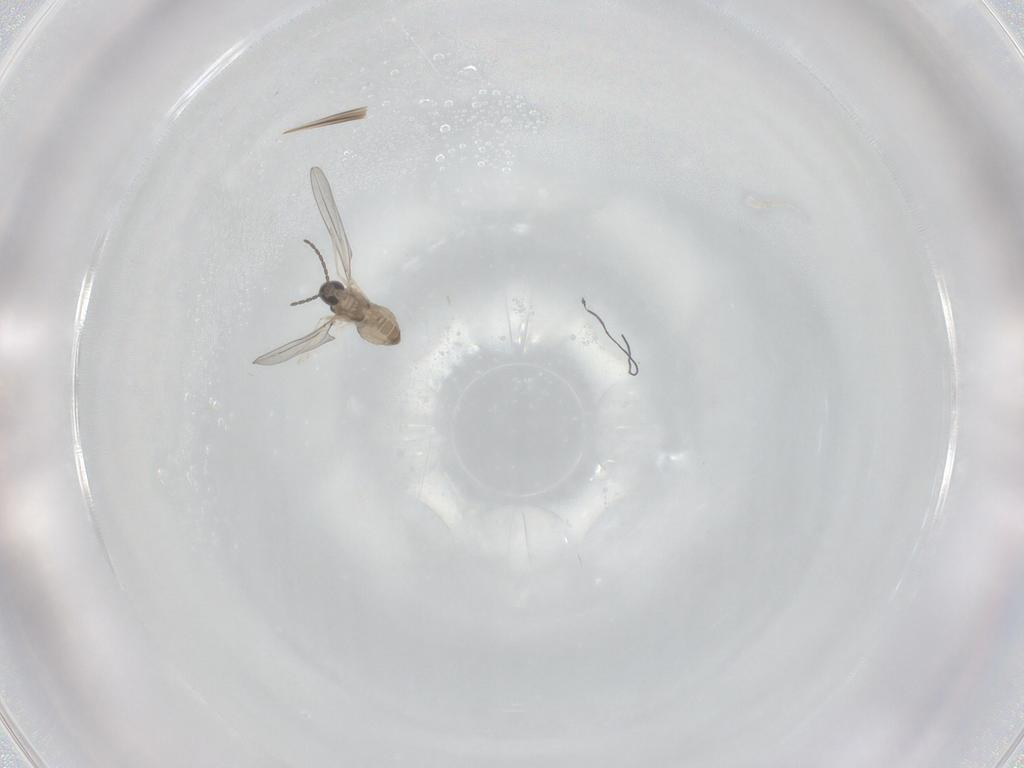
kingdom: Animalia
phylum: Arthropoda
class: Insecta
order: Diptera
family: Cecidomyiidae
